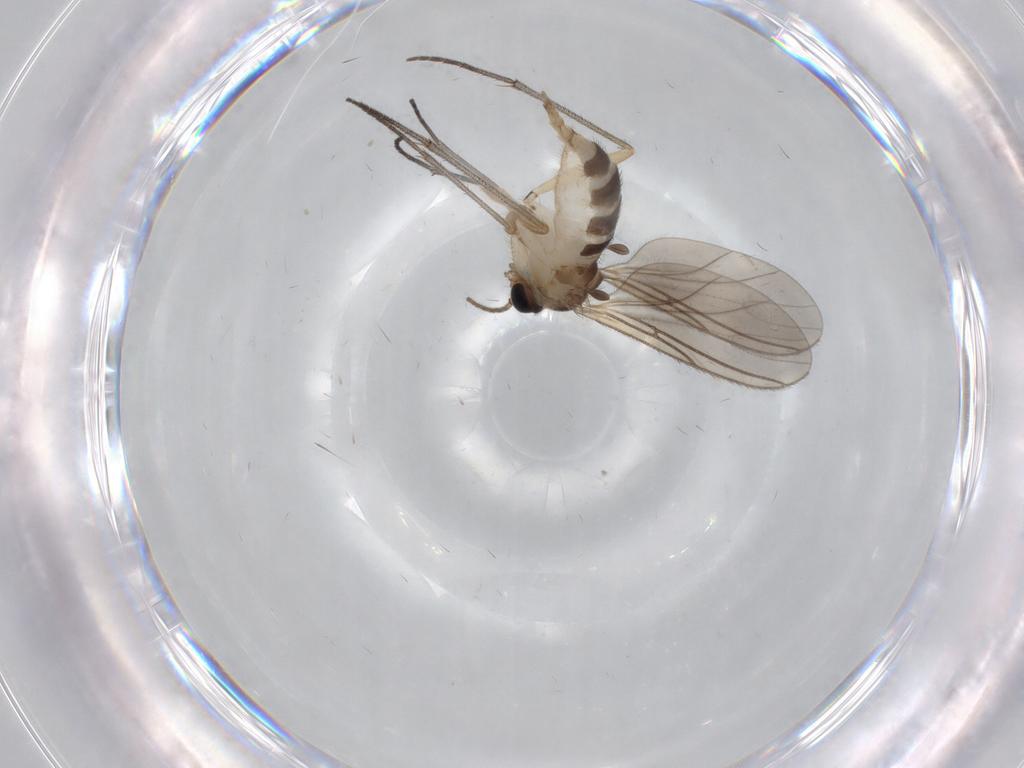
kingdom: Animalia
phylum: Arthropoda
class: Insecta
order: Diptera
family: Sciaridae
